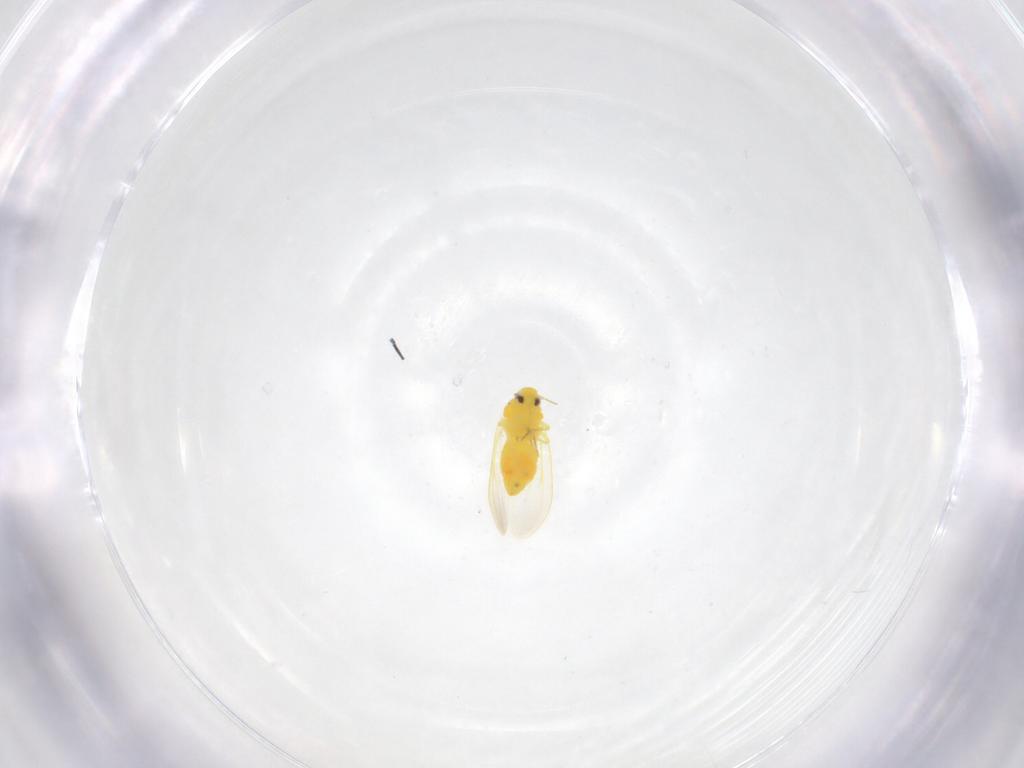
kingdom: Animalia
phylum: Arthropoda
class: Insecta
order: Hemiptera
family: Aleyrodidae
